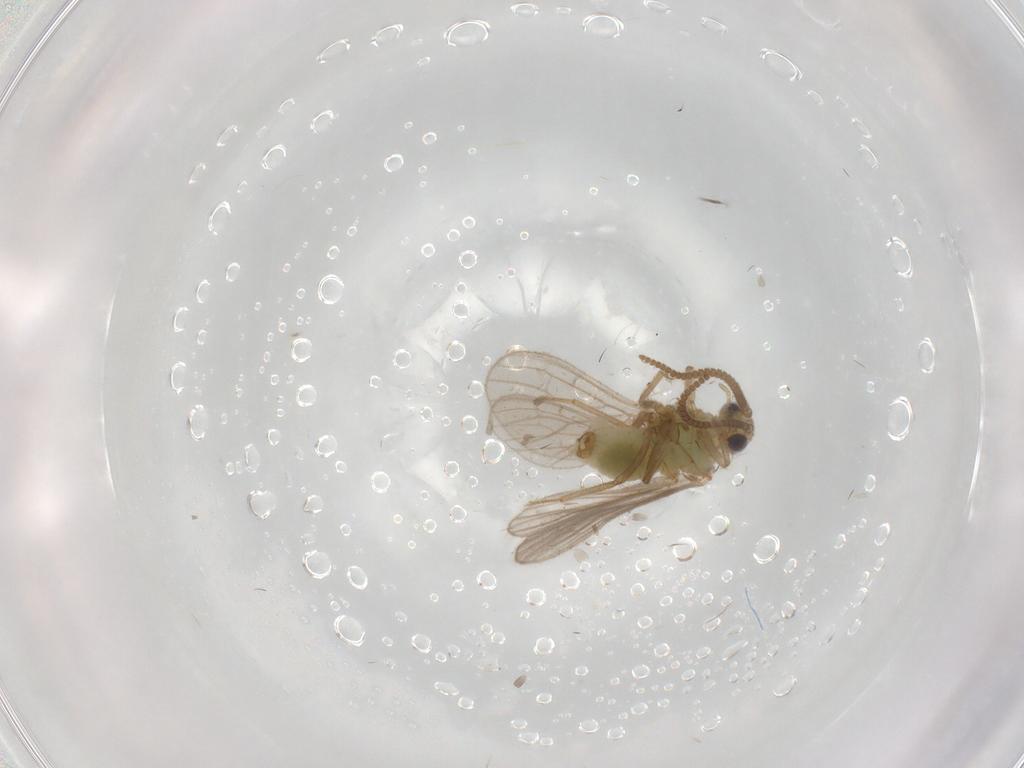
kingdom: Animalia
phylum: Arthropoda
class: Insecta
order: Neuroptera
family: Coniopterygidae
